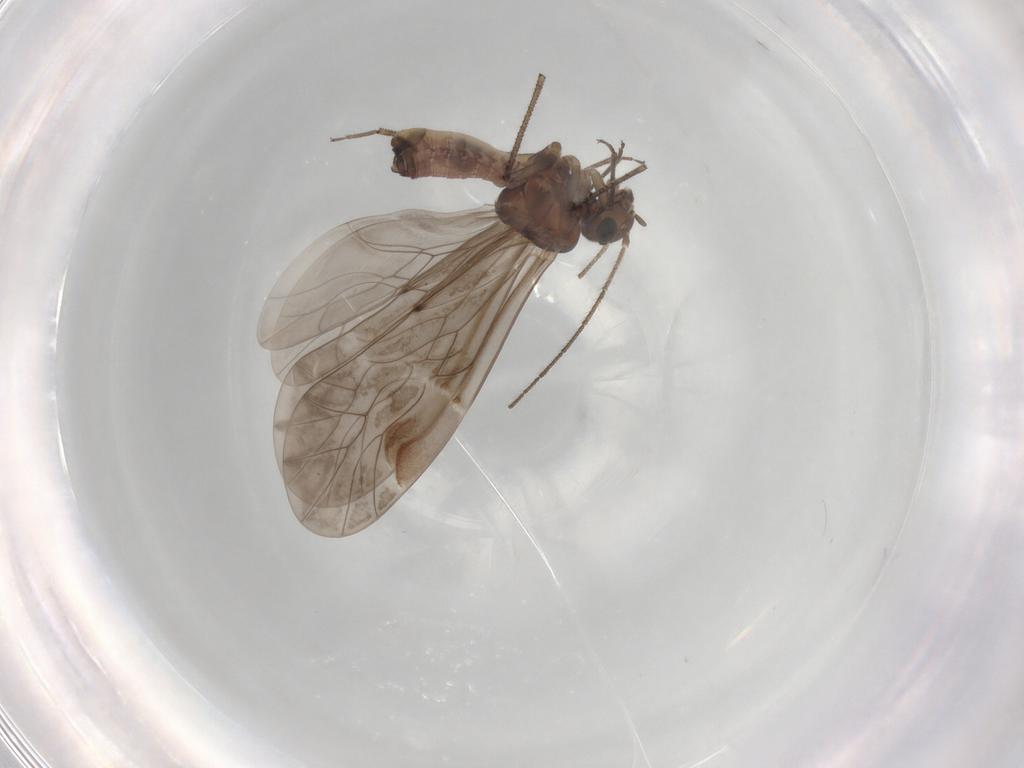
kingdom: Animalia
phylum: Arthropoda
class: Insecta
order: Psocodea
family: Peripsocidae
